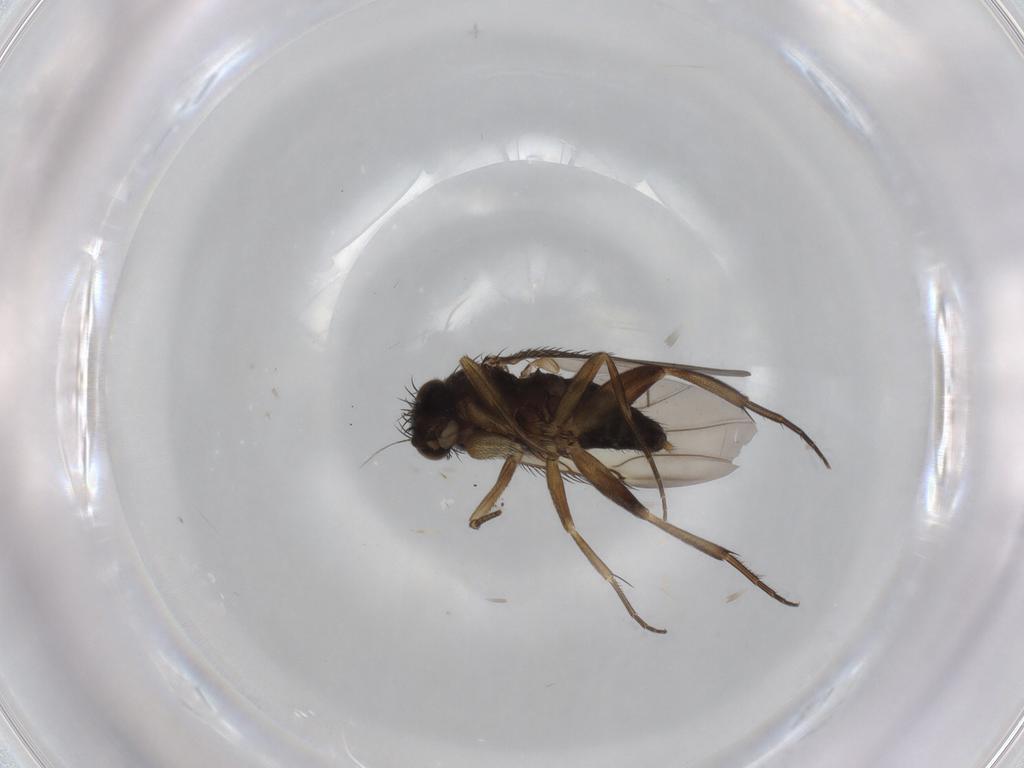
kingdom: Animalia
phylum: Arthropoda
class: Insecta
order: Diptera
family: Phoridae
